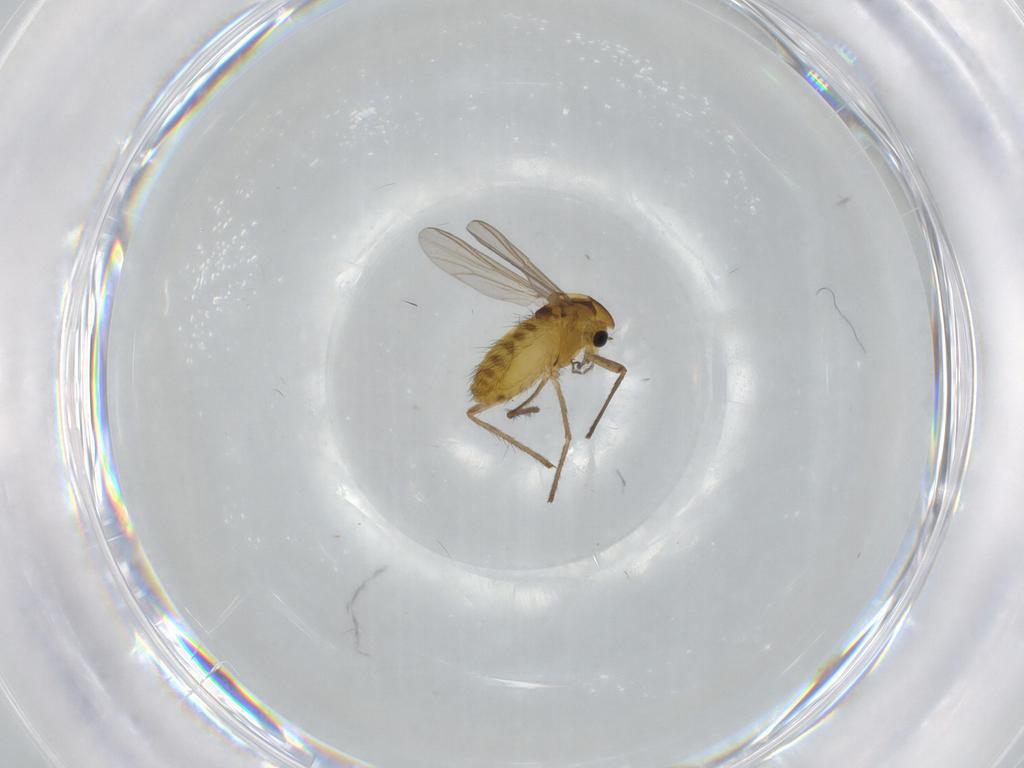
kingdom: Animalia
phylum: Arthropoda
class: Insecta
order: Diptera
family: Chironomidae
